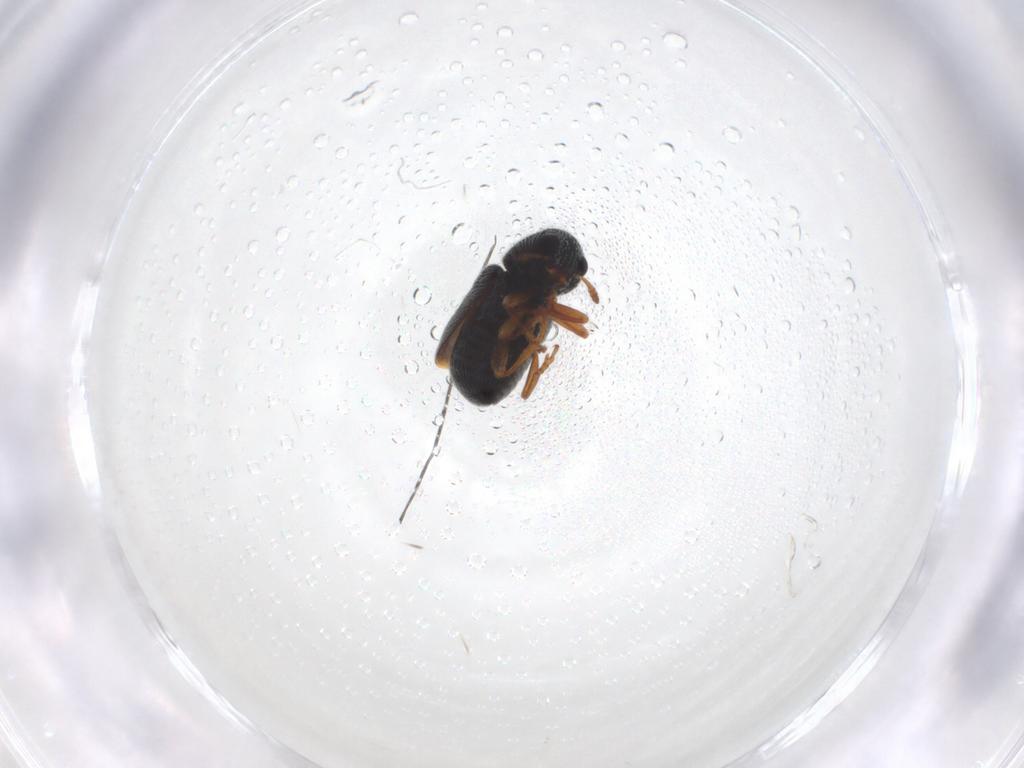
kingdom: Animalia
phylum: Arthropoda
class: Insecta
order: Coleoptera
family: Anthribidae
